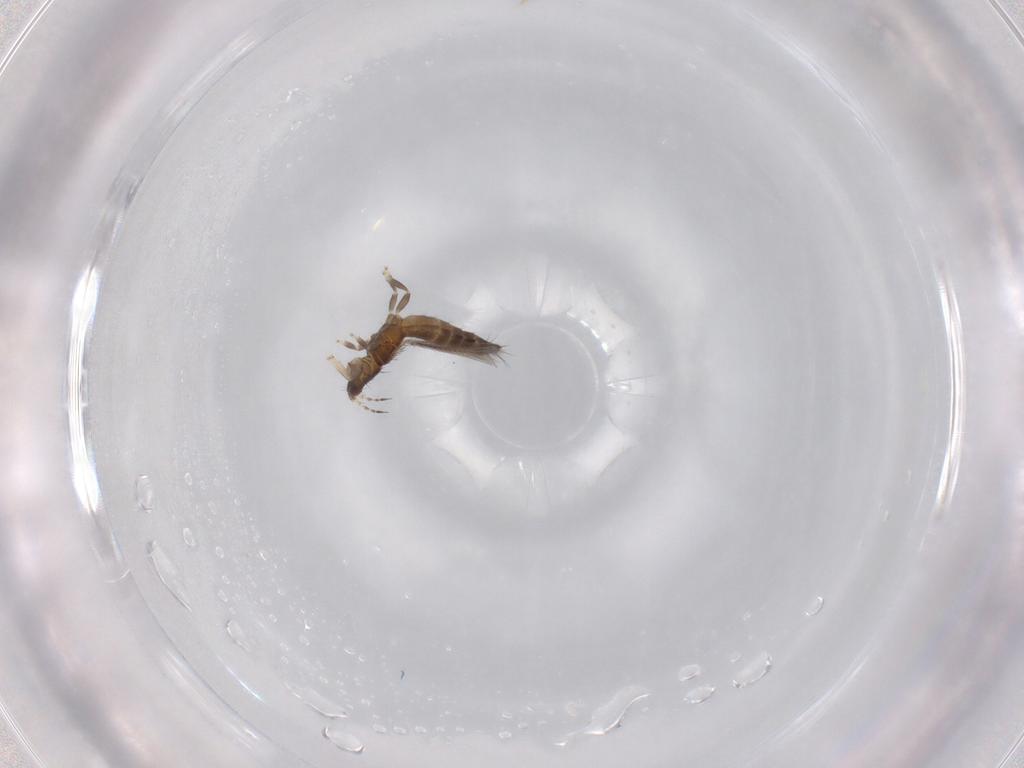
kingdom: Animalia
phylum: Arthropoda
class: Insecta
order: Thysanoptera
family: Thripidae
